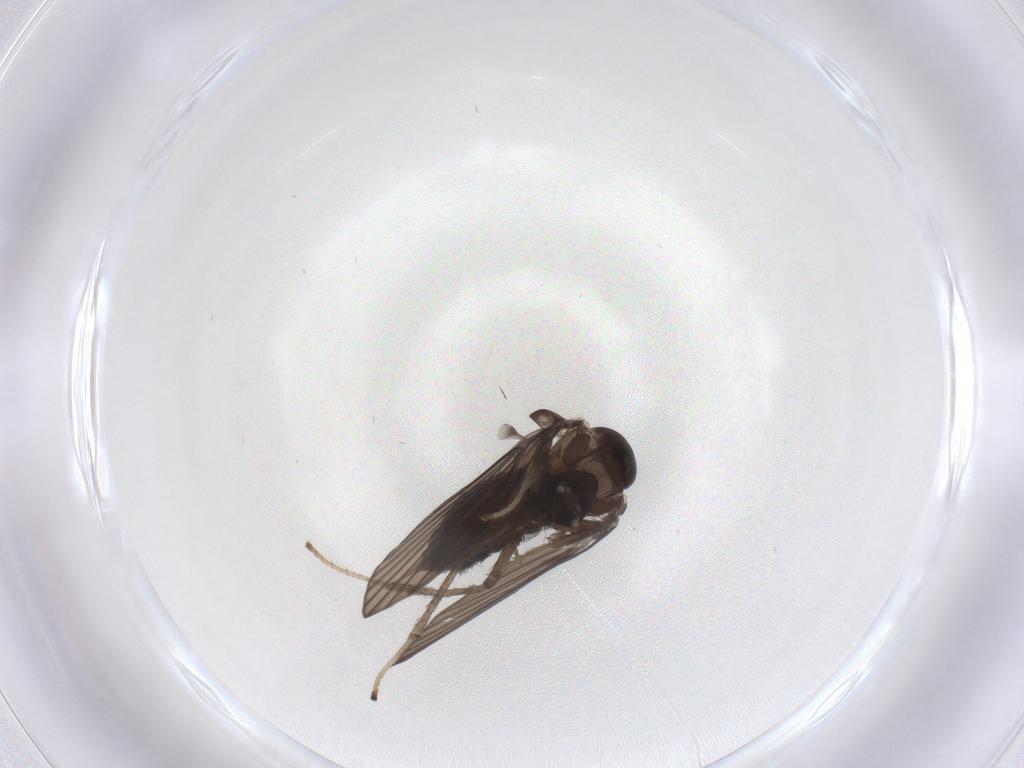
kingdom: Animalia
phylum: Arthropoda
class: Insecta
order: Diptera
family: Psychodidae
